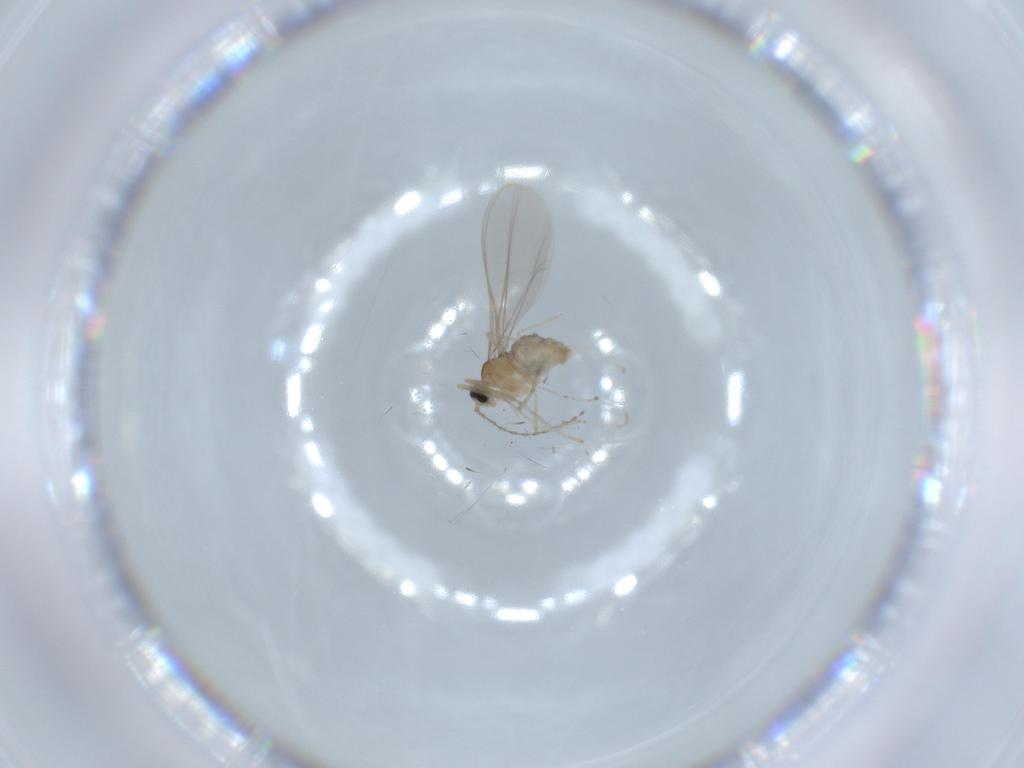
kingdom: Animalia
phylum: Arthropoda
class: Insecta
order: Diptera
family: Cecidomyiidae
